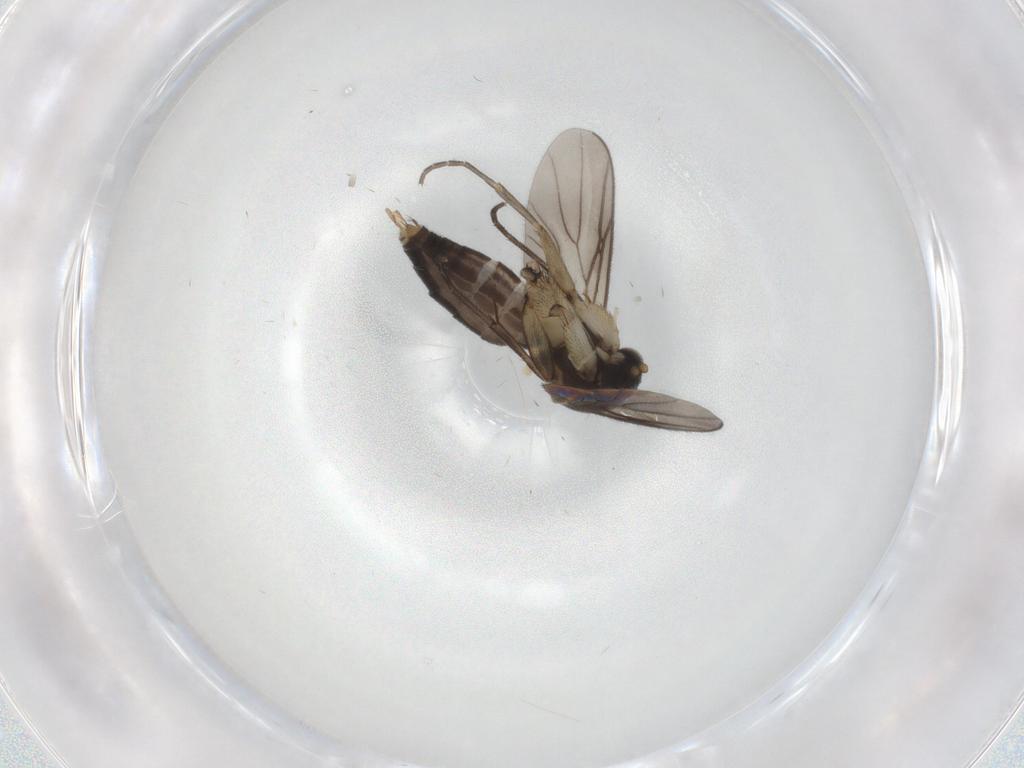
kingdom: Animalia
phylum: Arthropoda
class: Insecta
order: Diptera
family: Mycetophilidae
